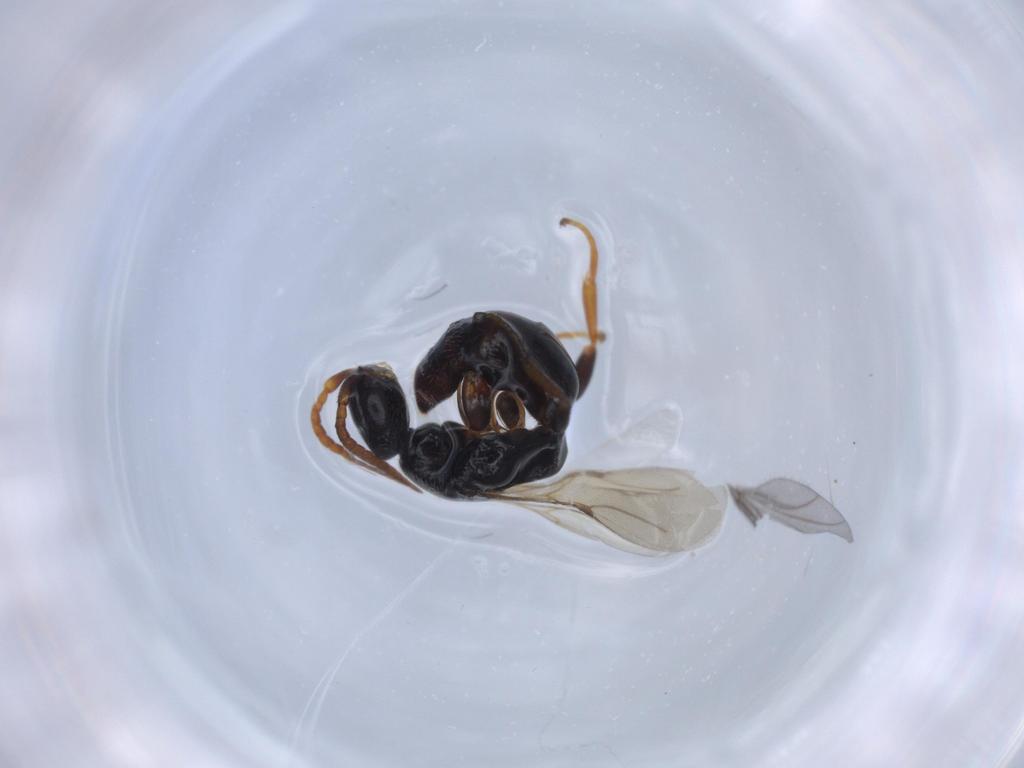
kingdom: Animalia
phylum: Arthropoda
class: Insecta
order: Hymenoptera
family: Bethylidae
